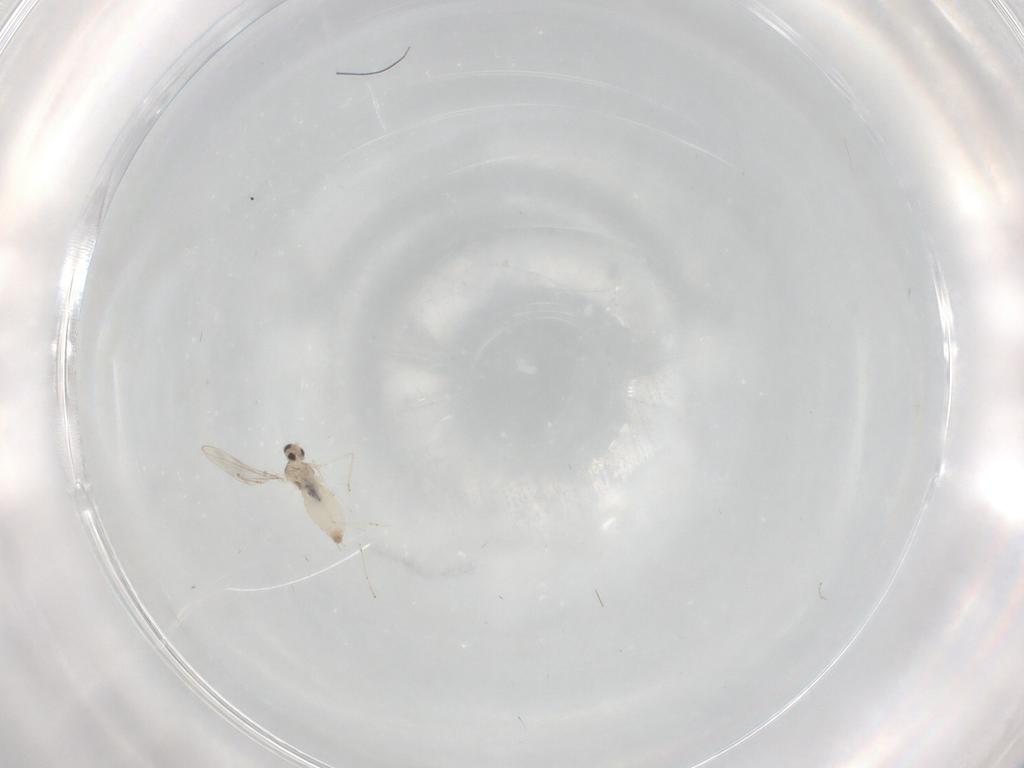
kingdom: Animalia
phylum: Arthropoda
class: Insecta
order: Diptera
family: Cecidomyiidae
